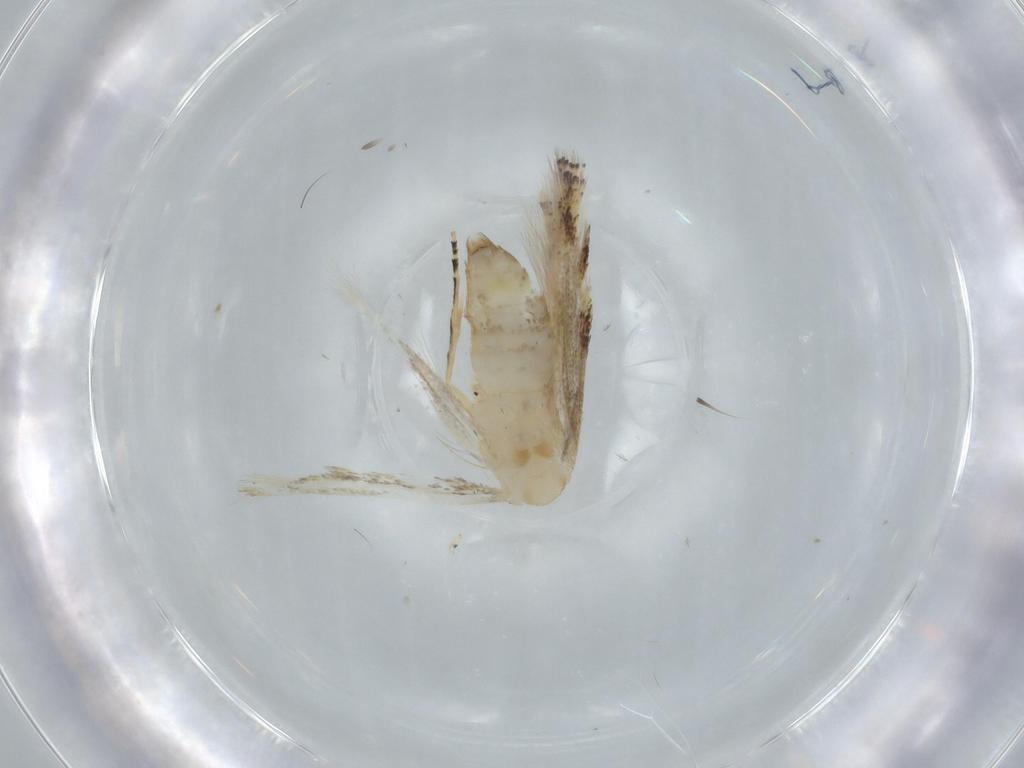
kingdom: Animalia
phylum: Arthropoda
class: Insecta
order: Lepidoptera
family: Bucculatricidae
